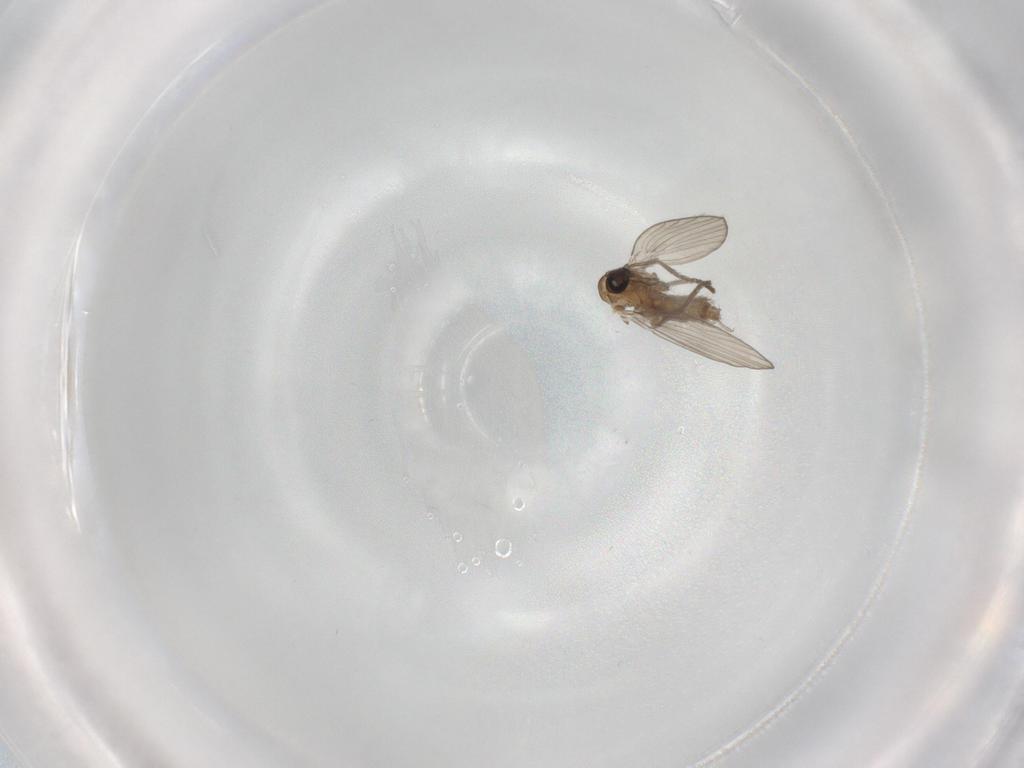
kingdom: Animalia
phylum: Arthropoda
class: Insecta
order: Diptera
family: Psychodidae
